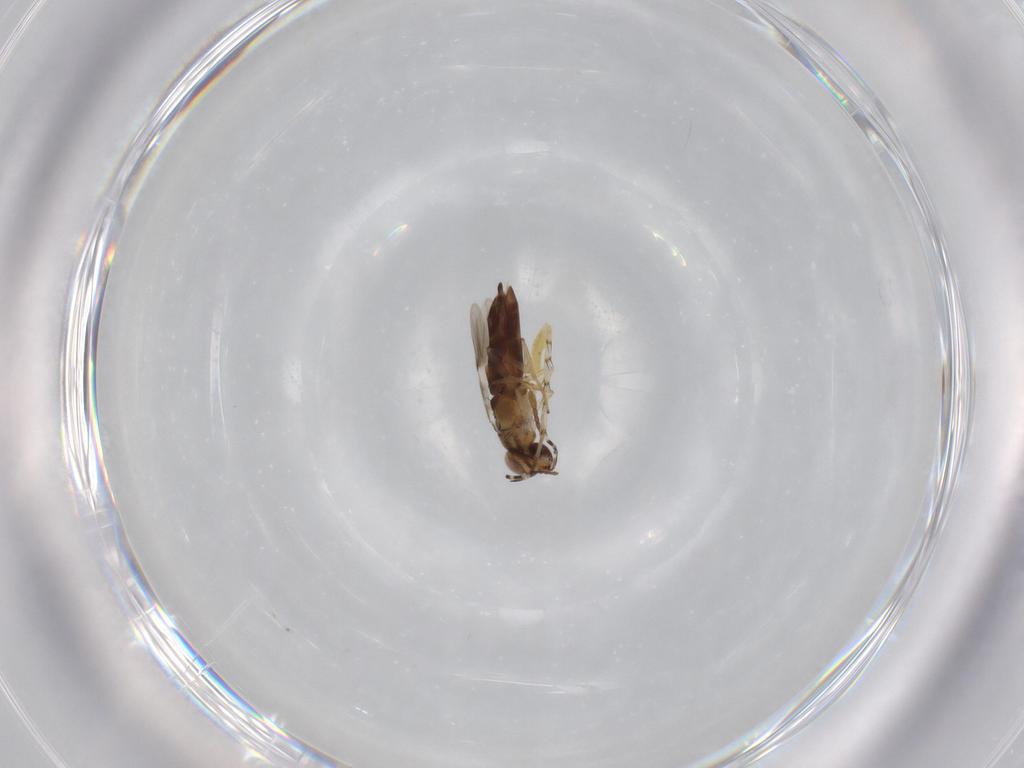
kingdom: Animalia
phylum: Arthropoda
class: Insecta
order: Hymenoptera
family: Encyrtidae
